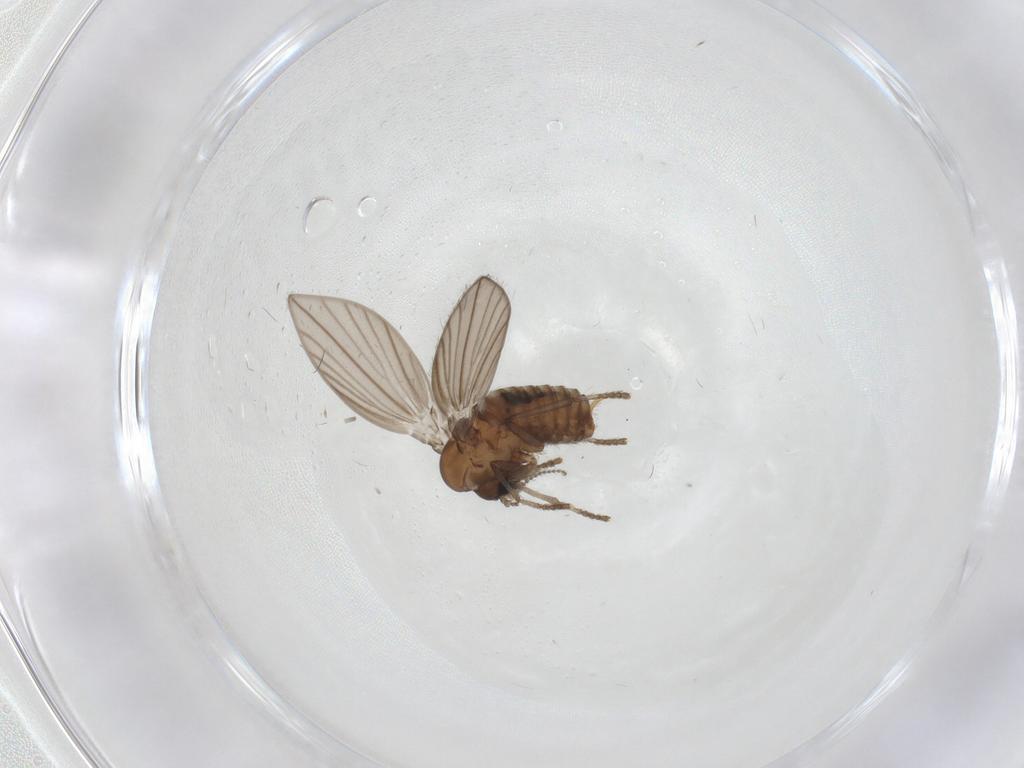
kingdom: Animalia
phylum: Arthropoda
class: Insecta
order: Diptera
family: Psychodidae
